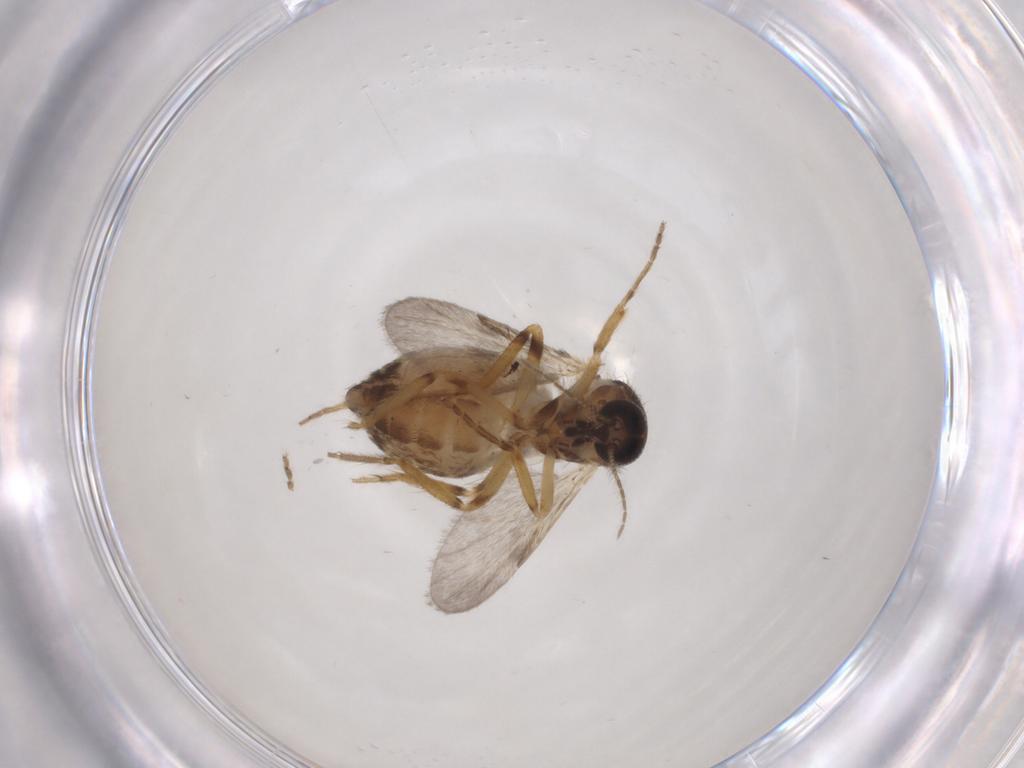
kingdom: Animalia
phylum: Arthropoda
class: Insecta
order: Diptera
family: Ceratopogonidae
